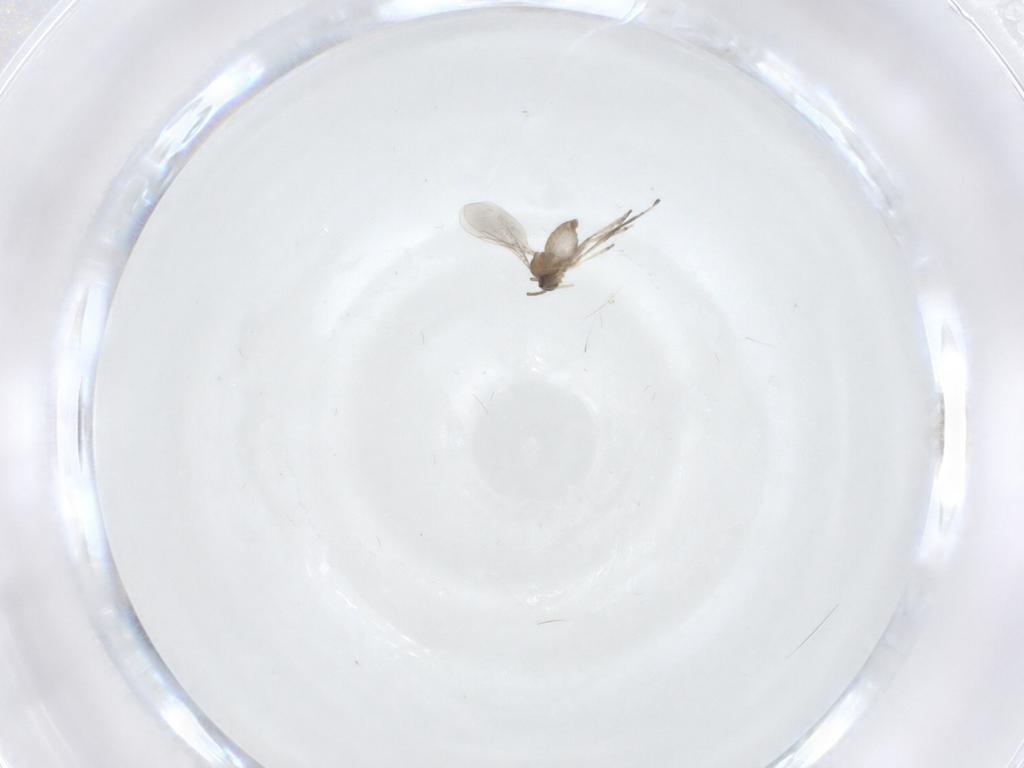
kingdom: Animalia
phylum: Arthropoda
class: Insecta
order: Diptera
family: Cecidomyiidae
